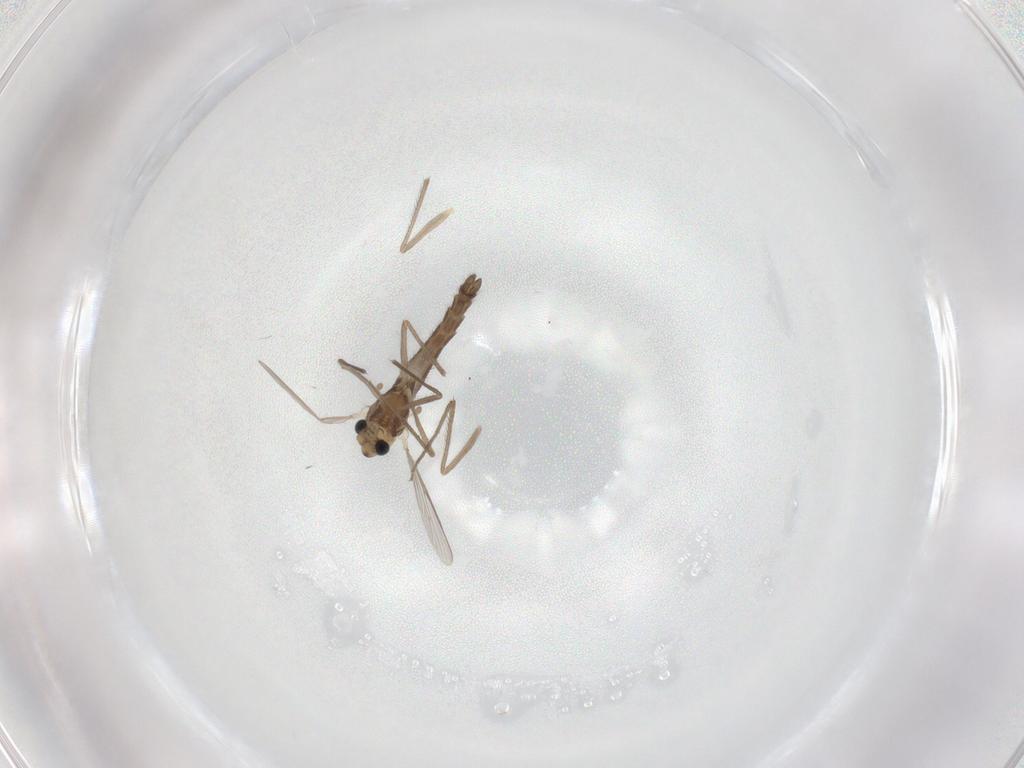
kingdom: Animalia
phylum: Arthropoda
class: Insecta
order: Diptera
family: Chironomidae
